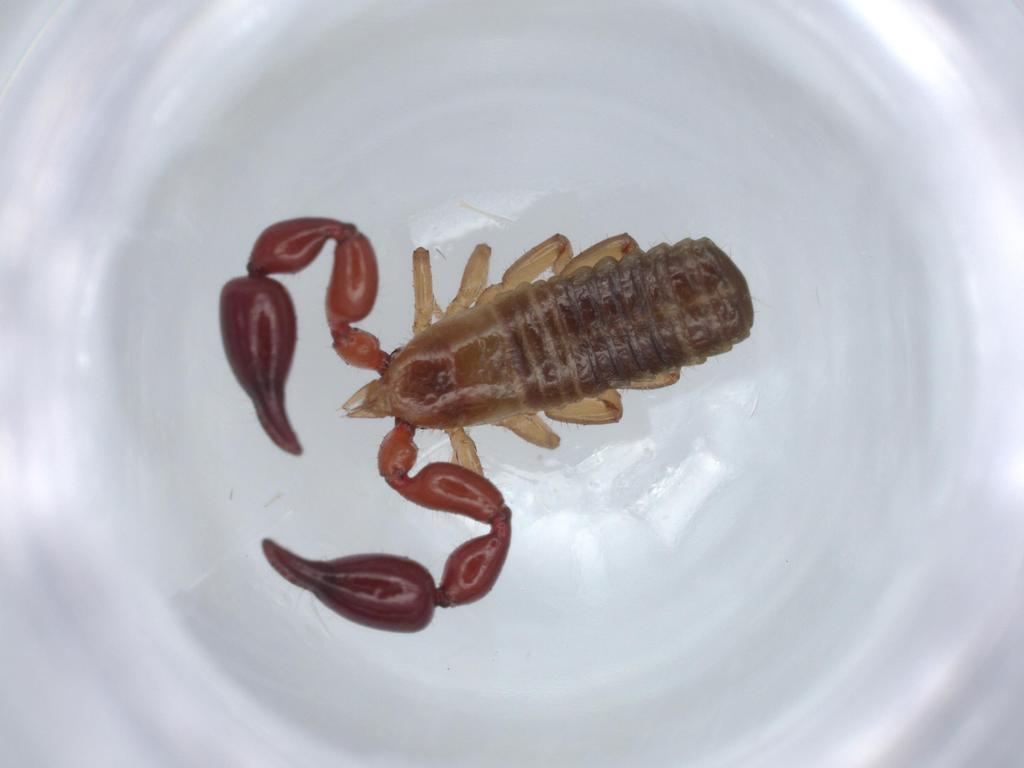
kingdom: Animalia
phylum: Arthropoda
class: Arachnida
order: Pseudoscorpiones
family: Chernetidae
